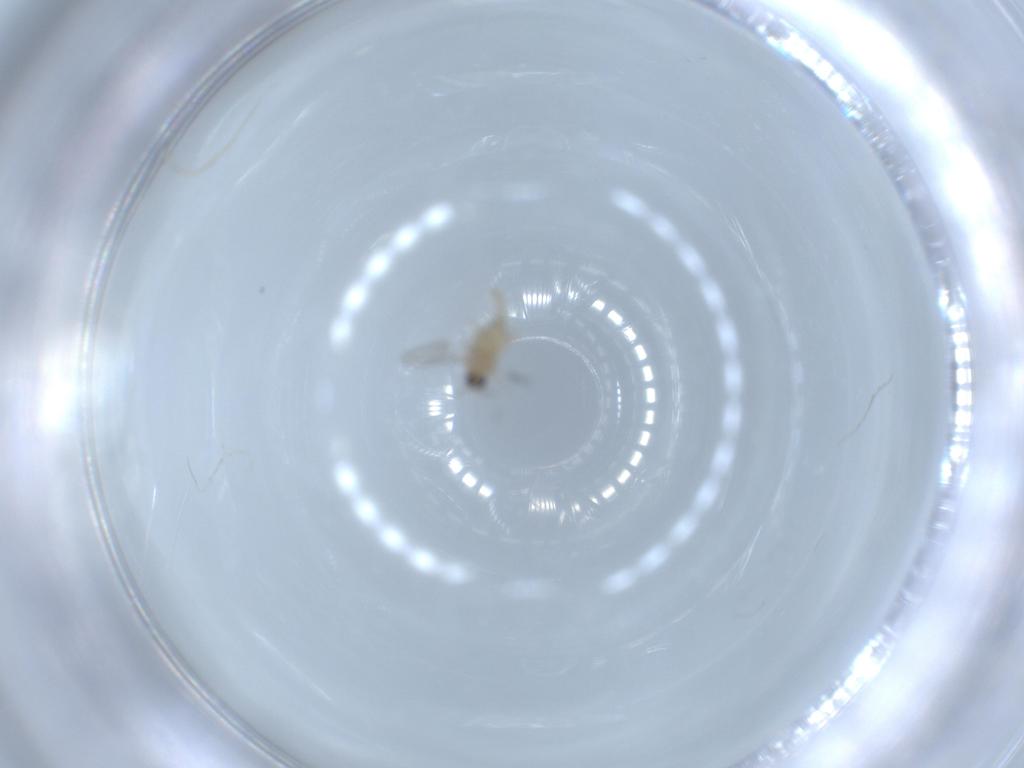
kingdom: Animalia
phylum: Arthropoda
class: Insecta
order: Diptera
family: Cecidomyiidae
